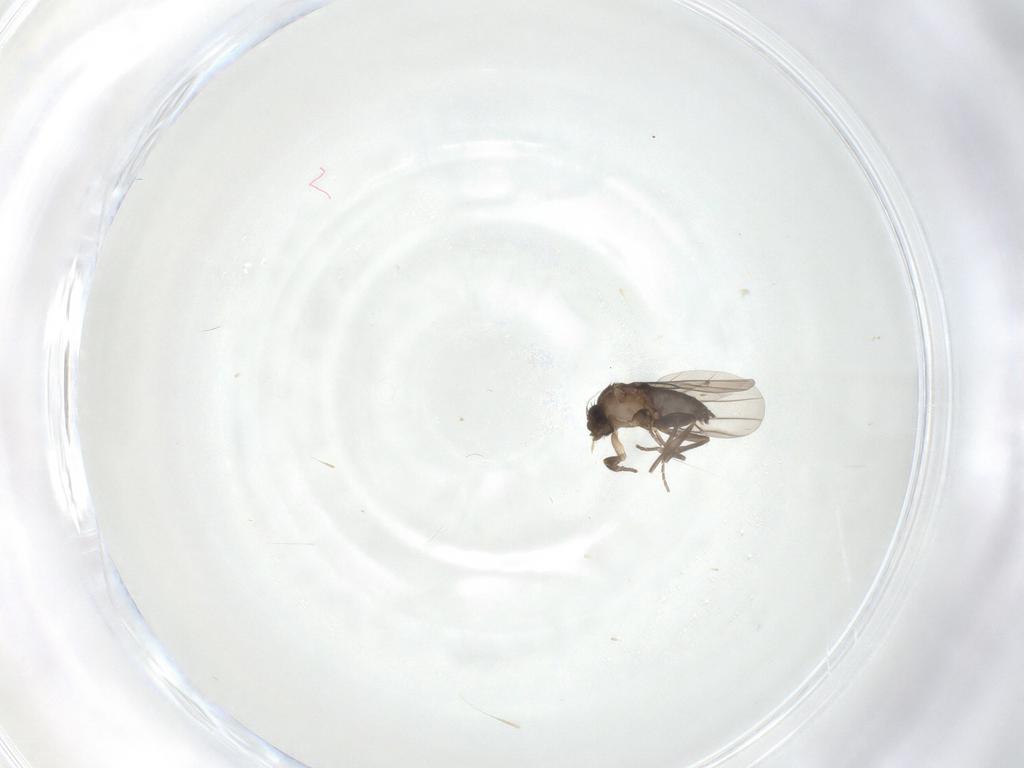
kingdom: Animalia
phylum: Arthropoda
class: Insecta
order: Diptera
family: Phoridae
